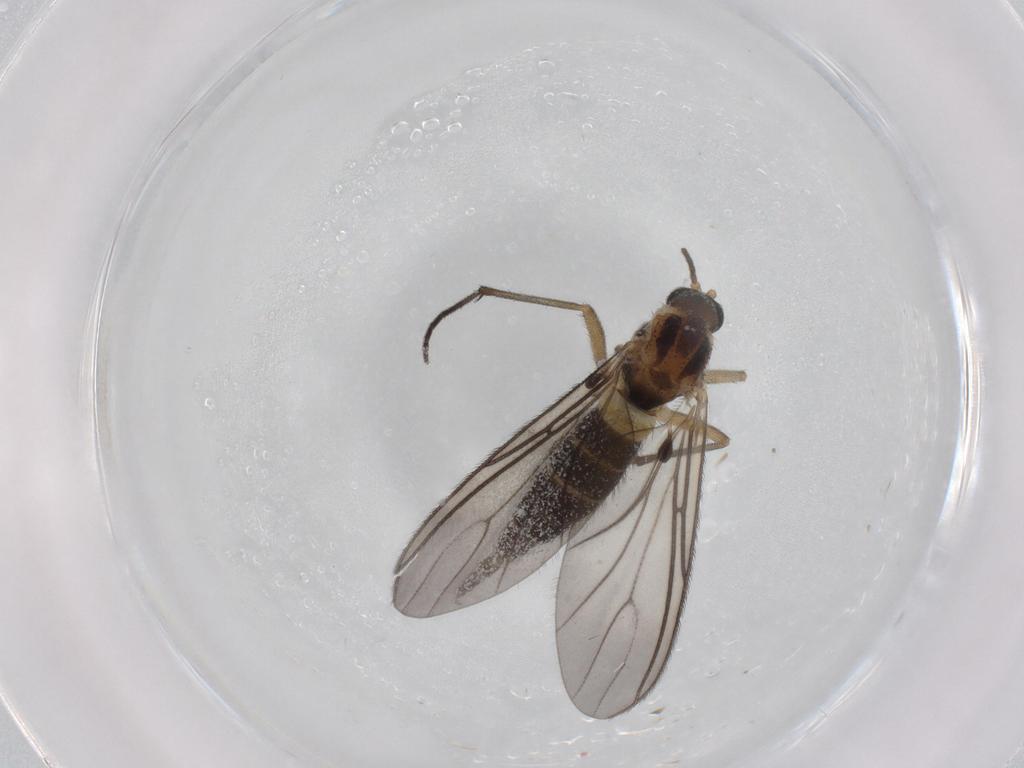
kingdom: Animalia
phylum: Arthropoda
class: Insecta
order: Diptera
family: Sciaridae
